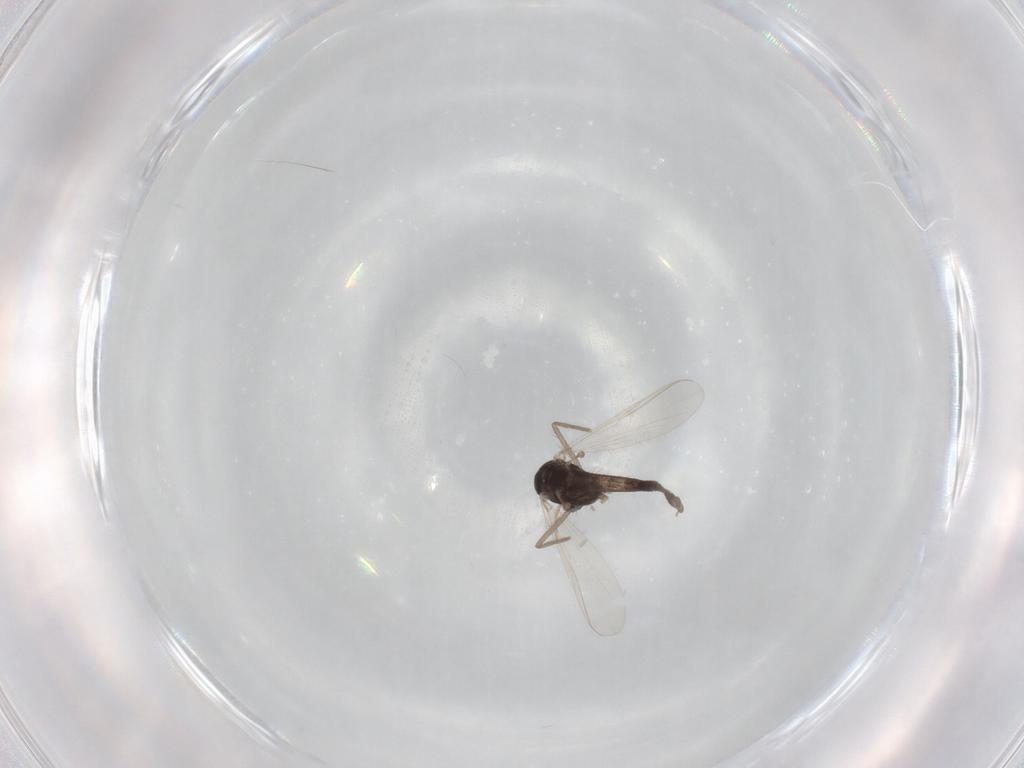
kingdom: Animalia
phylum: Arthropoda
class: Insecta
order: Diptera
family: Chironomidae
